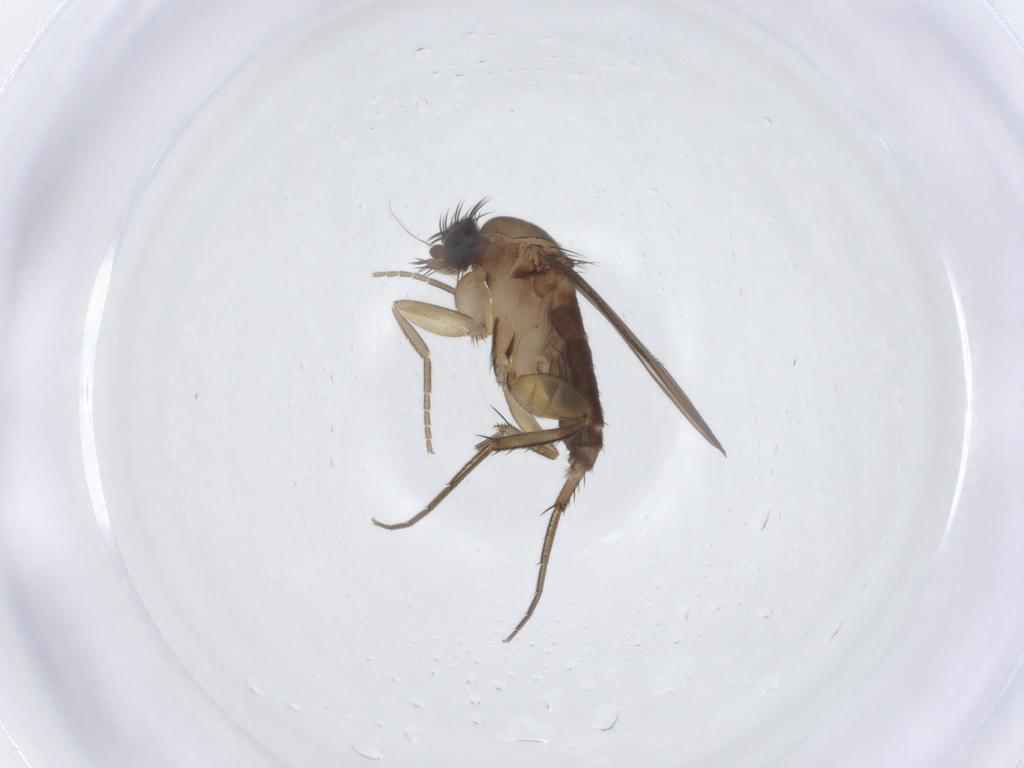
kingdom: Animalia
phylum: Arthropoda
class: Insecta
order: Diptera
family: Phoridae
